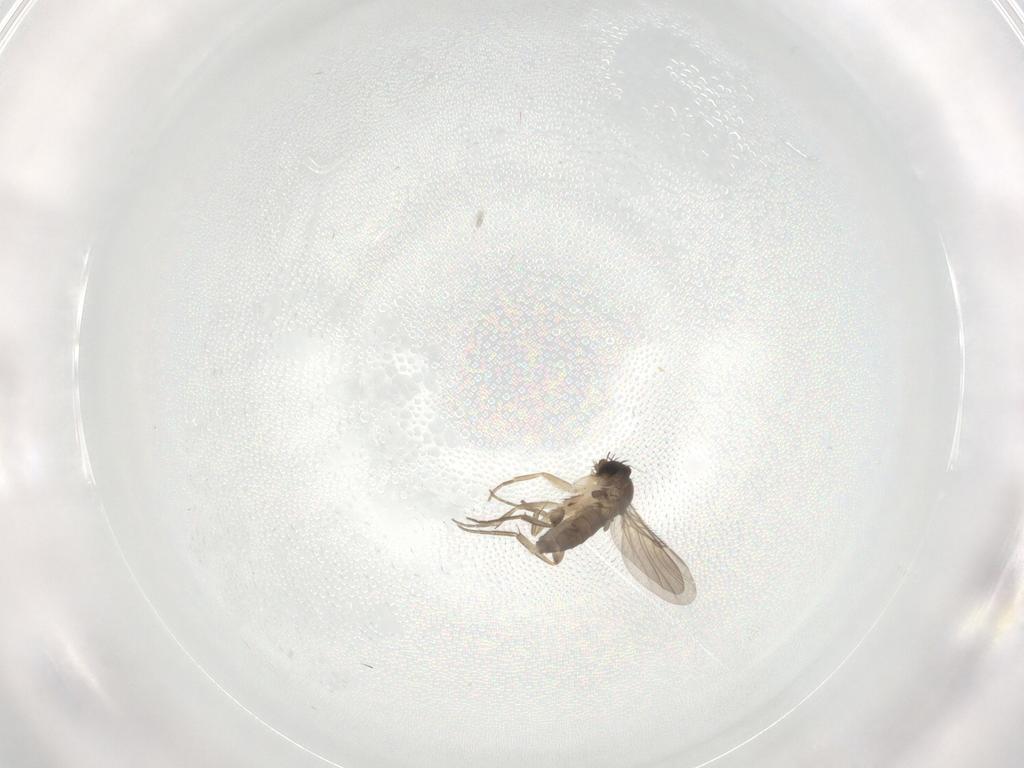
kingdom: Animalia
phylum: Arthropoda
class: Insecta
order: Diptera
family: Phoridae
